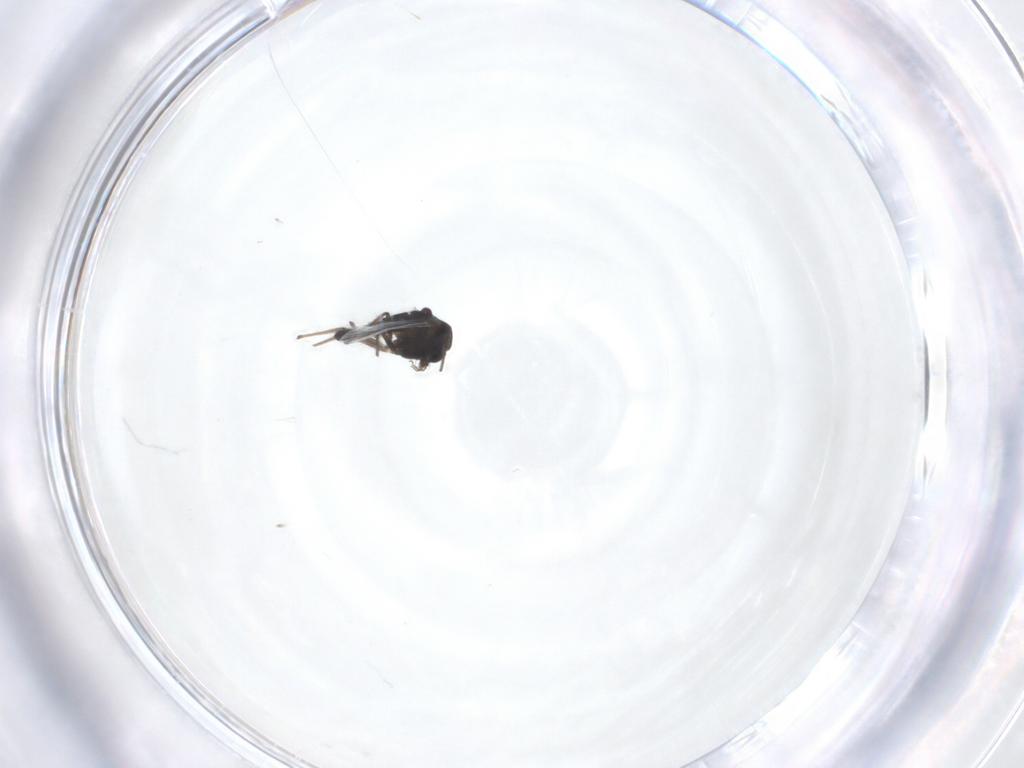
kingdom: Animalia
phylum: Arthropoda
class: Insecta
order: Diptera
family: Chironomidae
